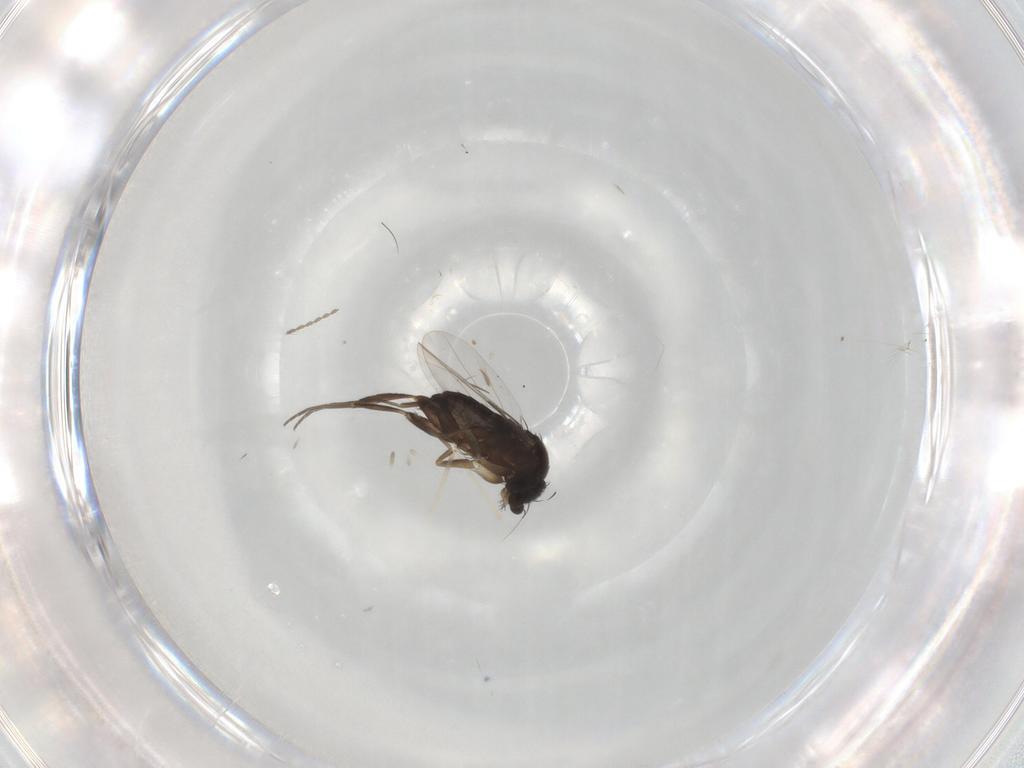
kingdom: Animalia
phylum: Arthropoda
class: Insecta
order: Diptera
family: Phoridae
